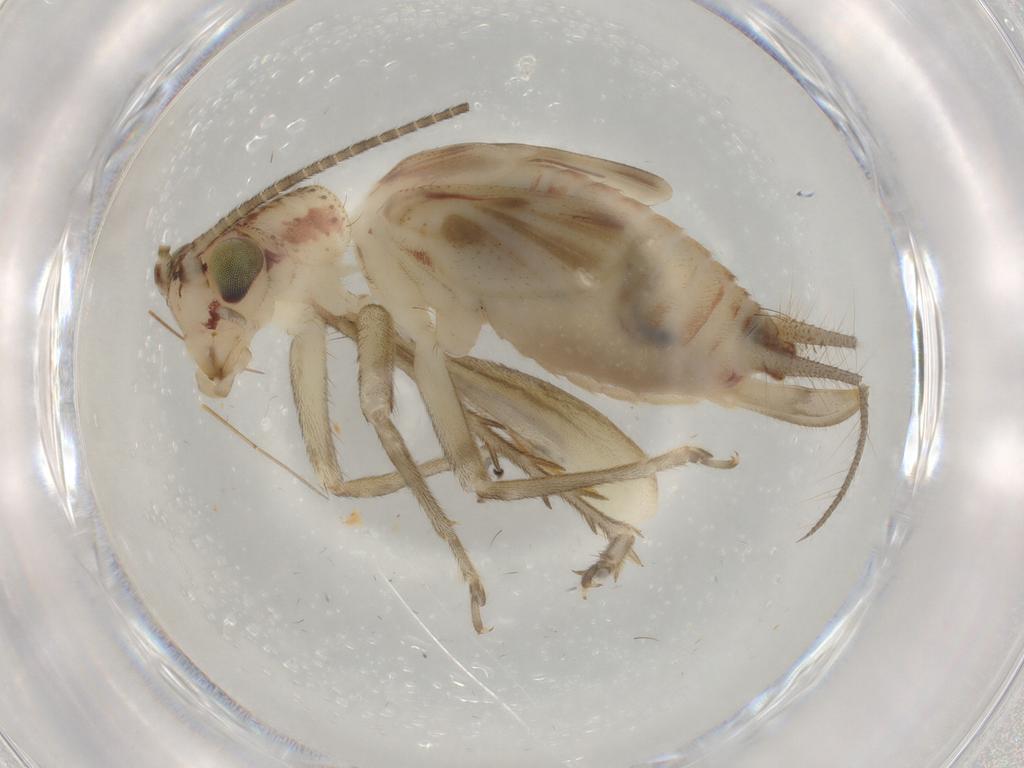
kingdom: Animalia
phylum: Arthropoda
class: Insecta
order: Orthoptera
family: Trigonidiidae
